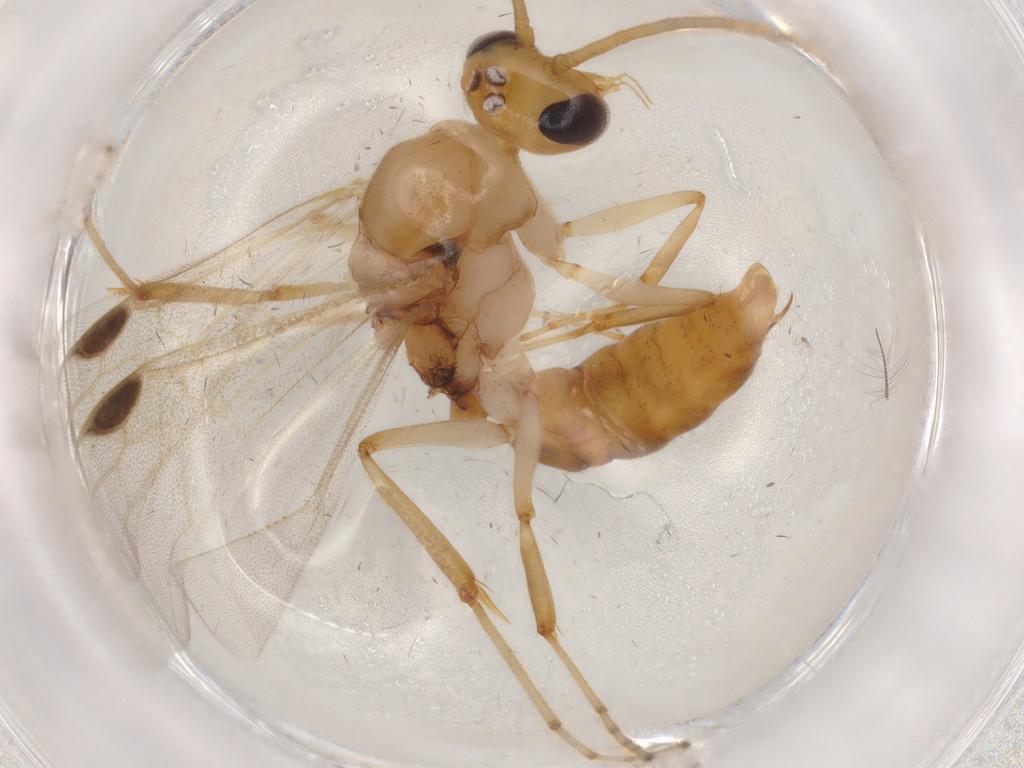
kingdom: Animalia
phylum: Arthropoda
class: Insecta
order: Hymenoptera
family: Formicidae
